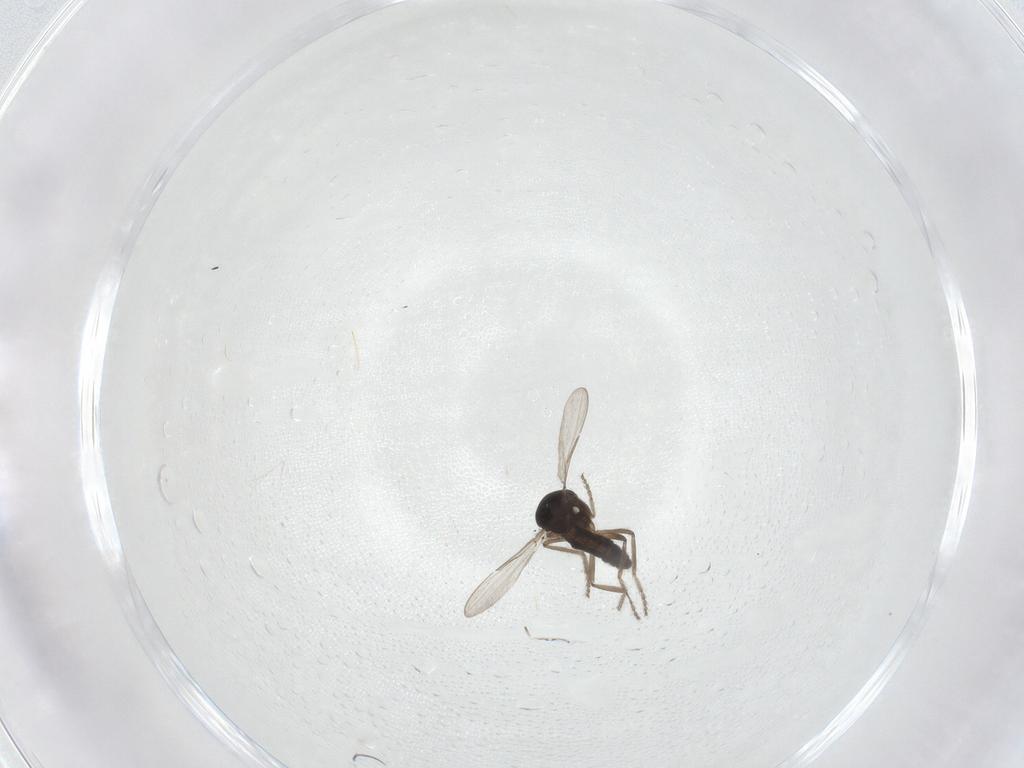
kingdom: Animalia
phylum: Arthropoda
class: Insecta
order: Diptera
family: Ceratopogonidae
